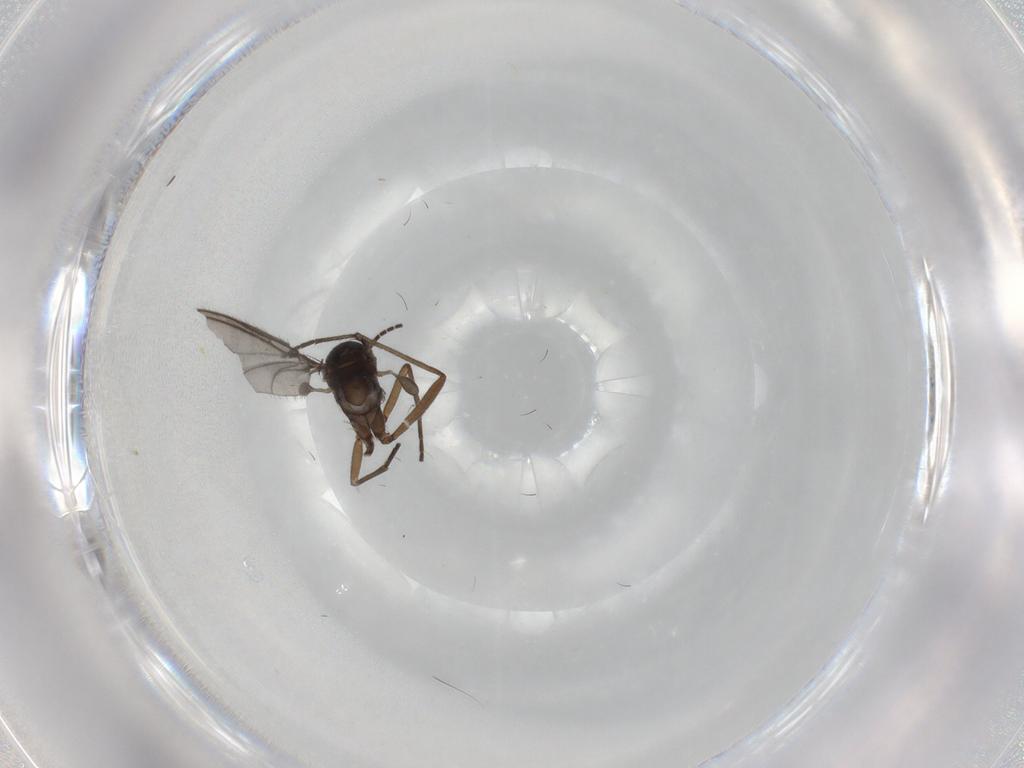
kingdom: Animalia
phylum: Arthropoda
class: Insecta
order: Diptera
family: Sciaridae
